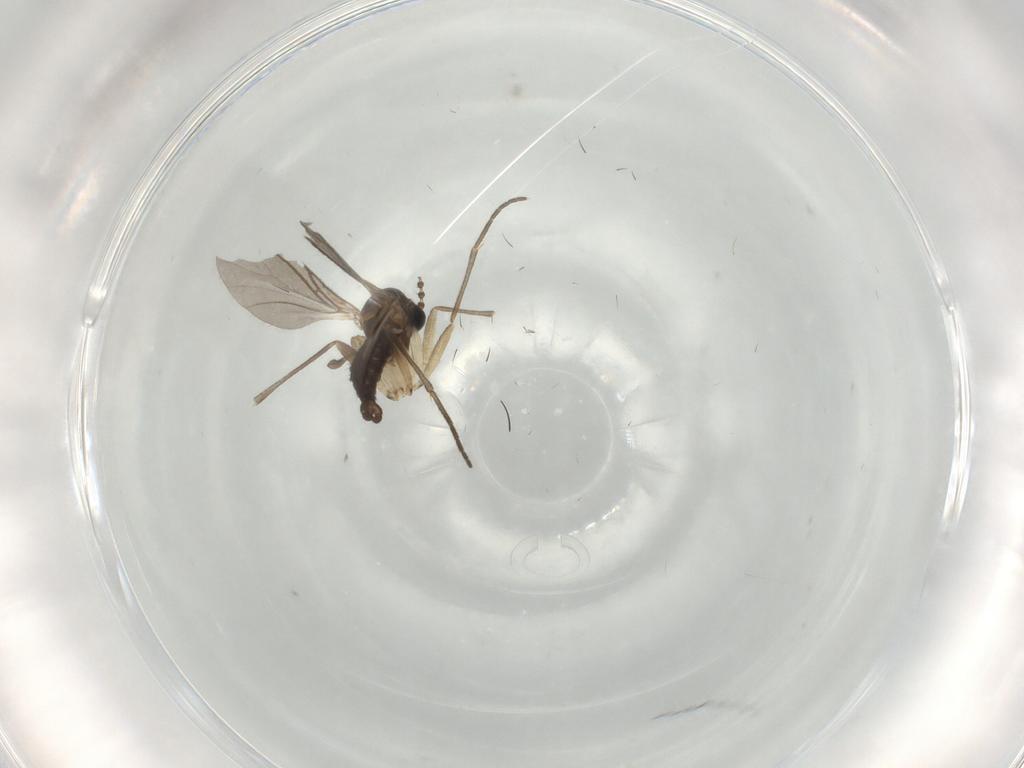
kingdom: Animalia
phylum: Arthropoda
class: Insecta
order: Diptera
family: Sciaridae
